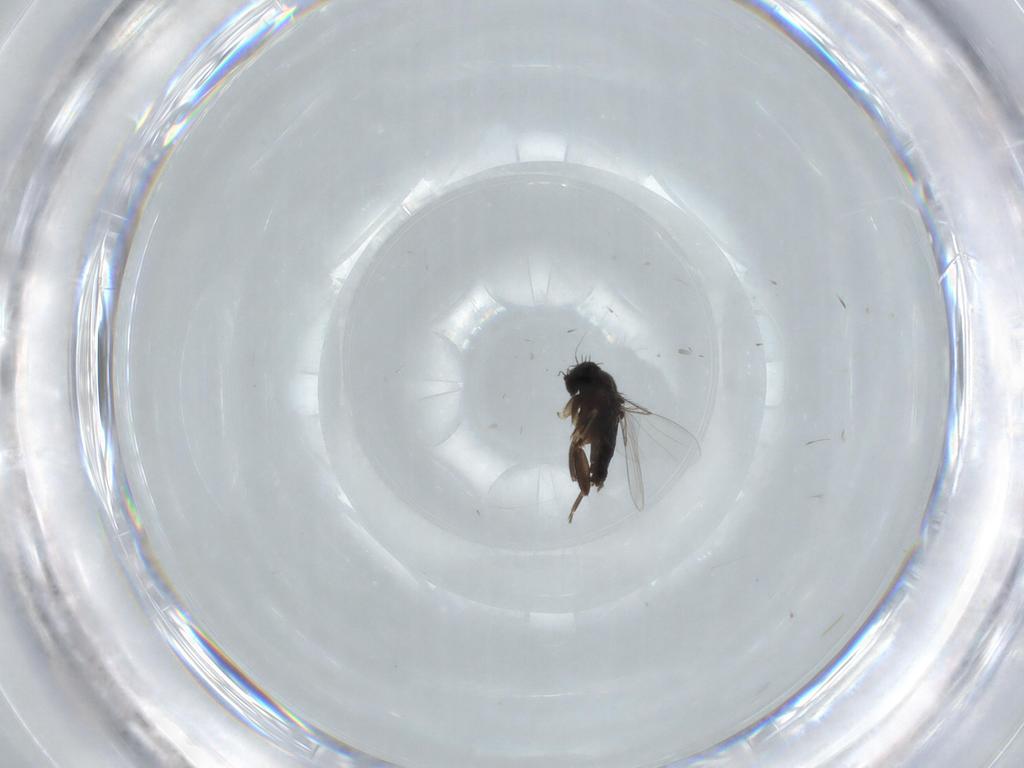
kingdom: Animalia
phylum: Arthropoda
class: Insecta
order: Diptera
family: Phoridae
